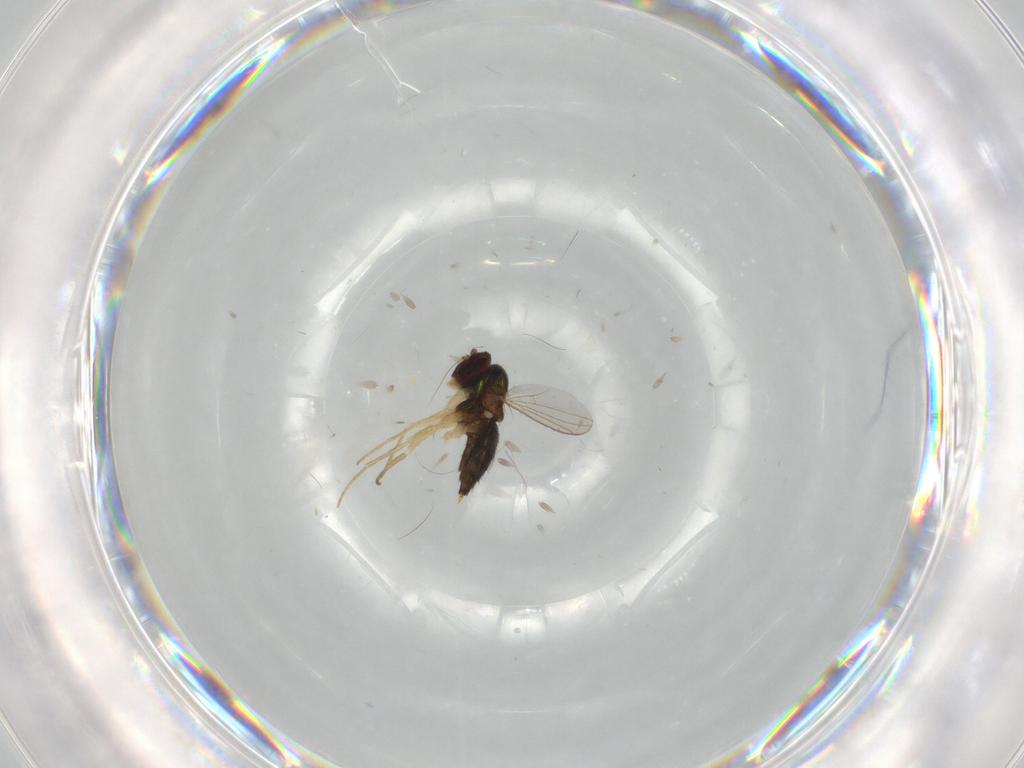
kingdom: Animalia
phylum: Arthropoda
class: Insecta
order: Diptera
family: Dolichopodidae
